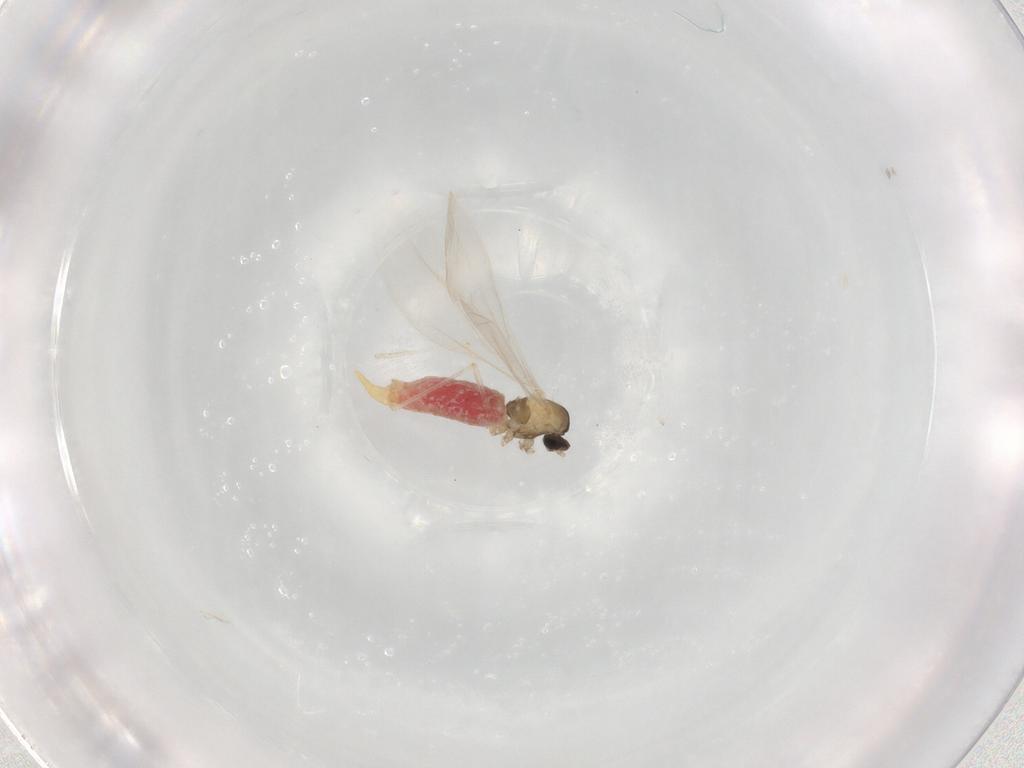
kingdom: Animalia
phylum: Arthropoda
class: Insecta
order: Diptera
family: Cecidomyiidae
